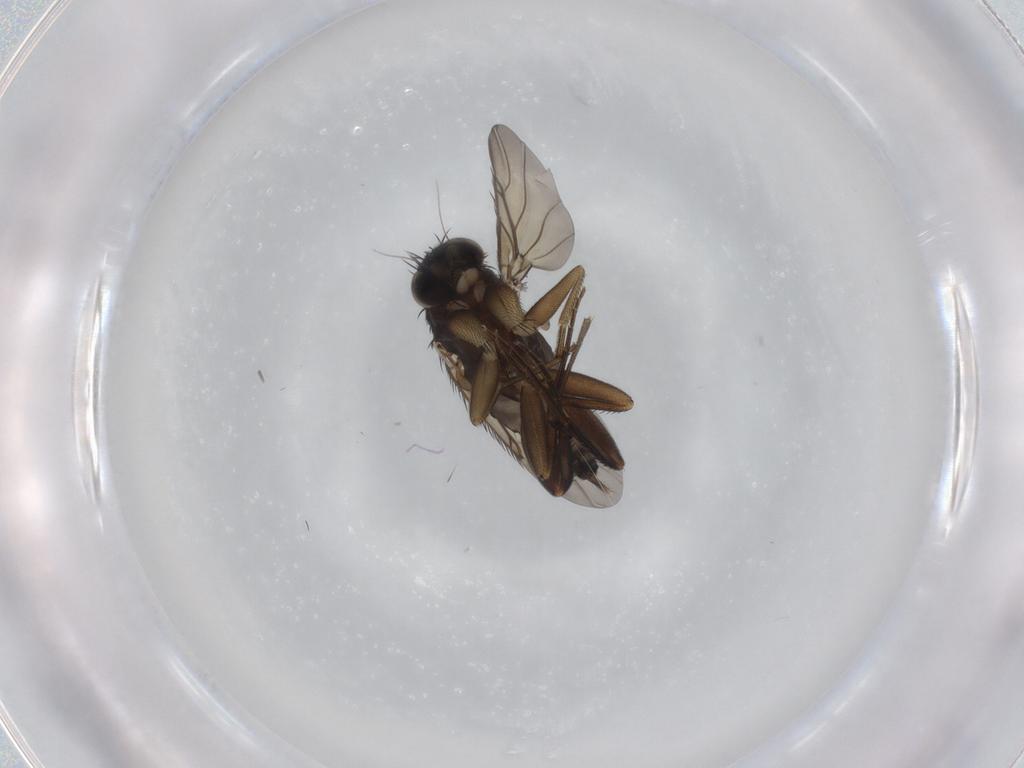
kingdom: Animalia
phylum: Arthropoda
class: Insecta
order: Diptera
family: Phoridae
